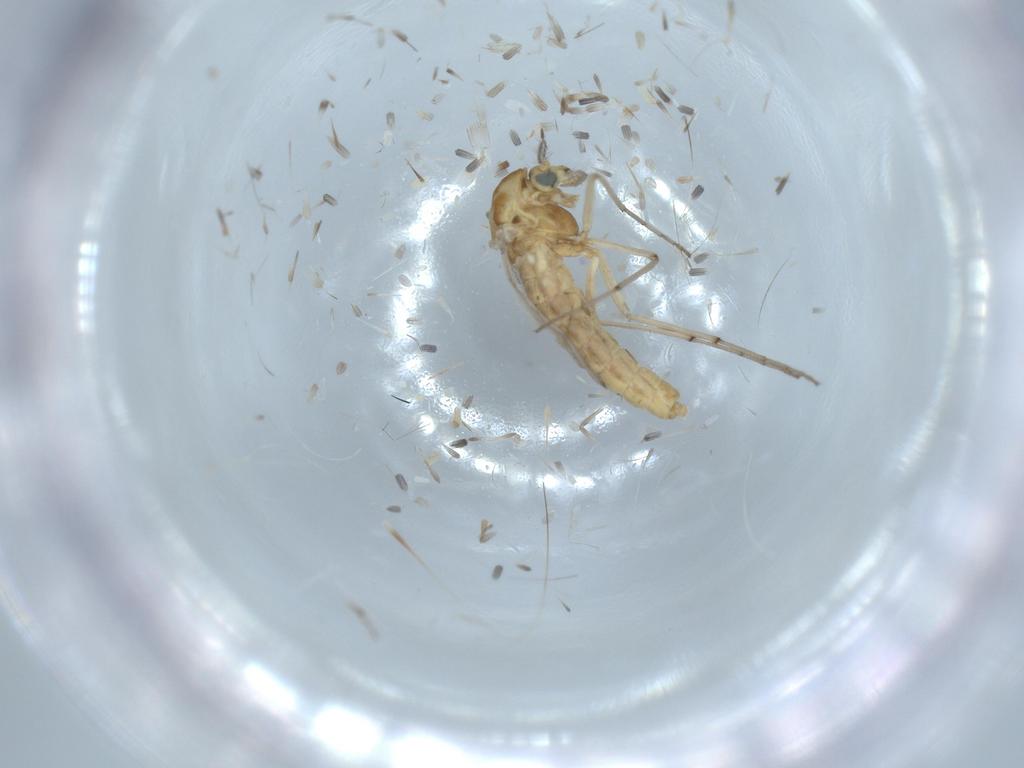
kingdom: Animalia
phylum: Arthropoda
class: Insecta
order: Diptera
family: Chironomidae
